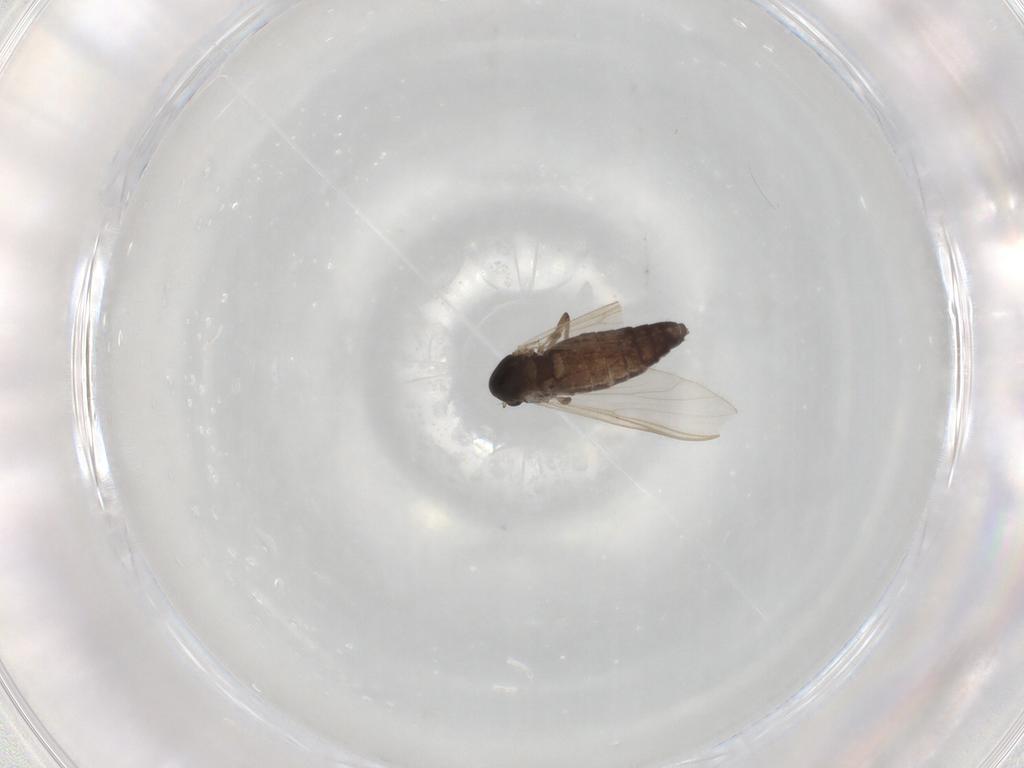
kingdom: Animalia
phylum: Arthropoda
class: Insecta
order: Diptera
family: Chironomidae
